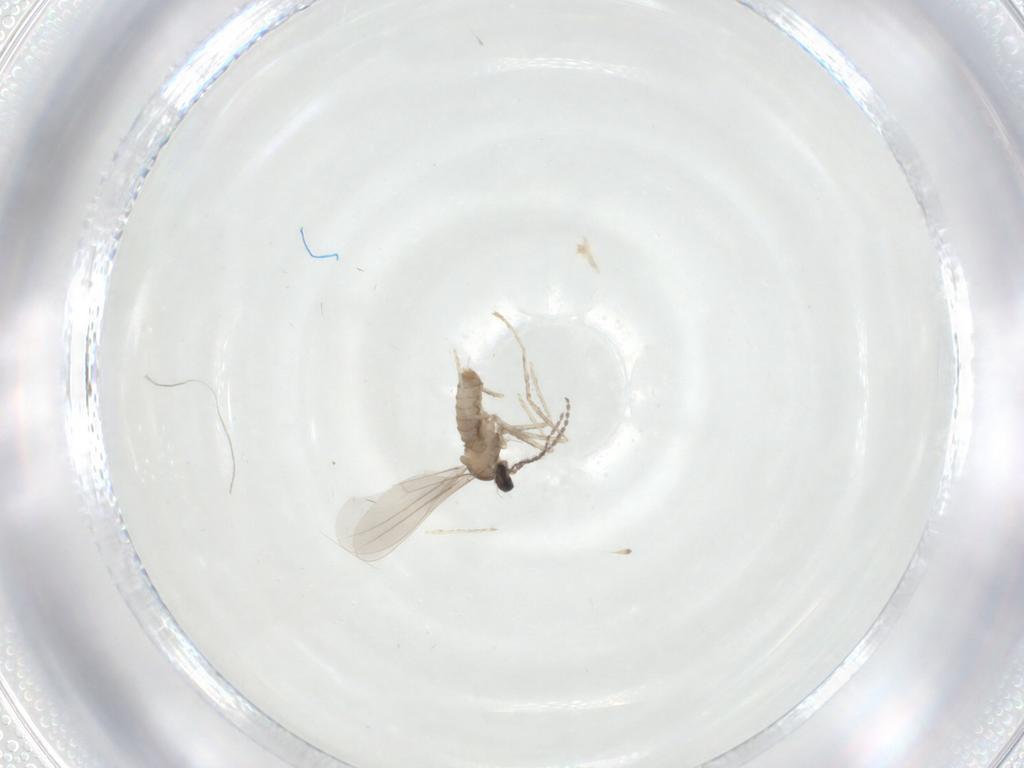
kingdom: Animalia
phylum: Arthropoda
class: Insecta
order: Diptera
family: Cecidomyiidae
